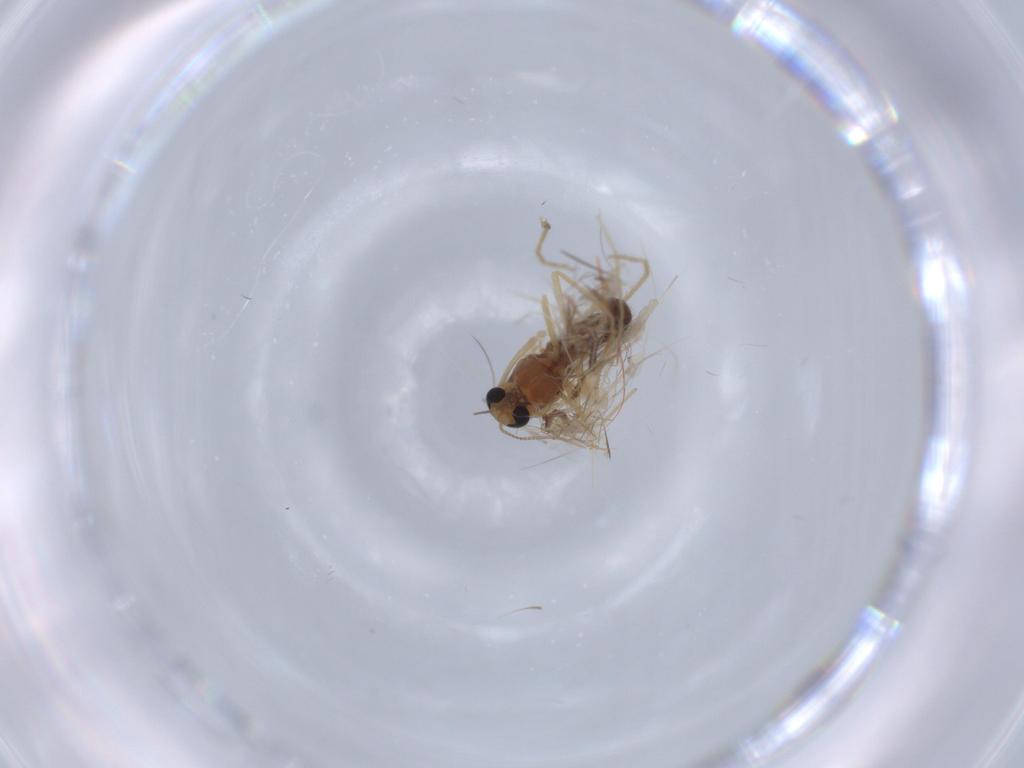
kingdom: Animalia
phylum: Arthropoda
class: Insecta
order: Diptera
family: Chironomidae
